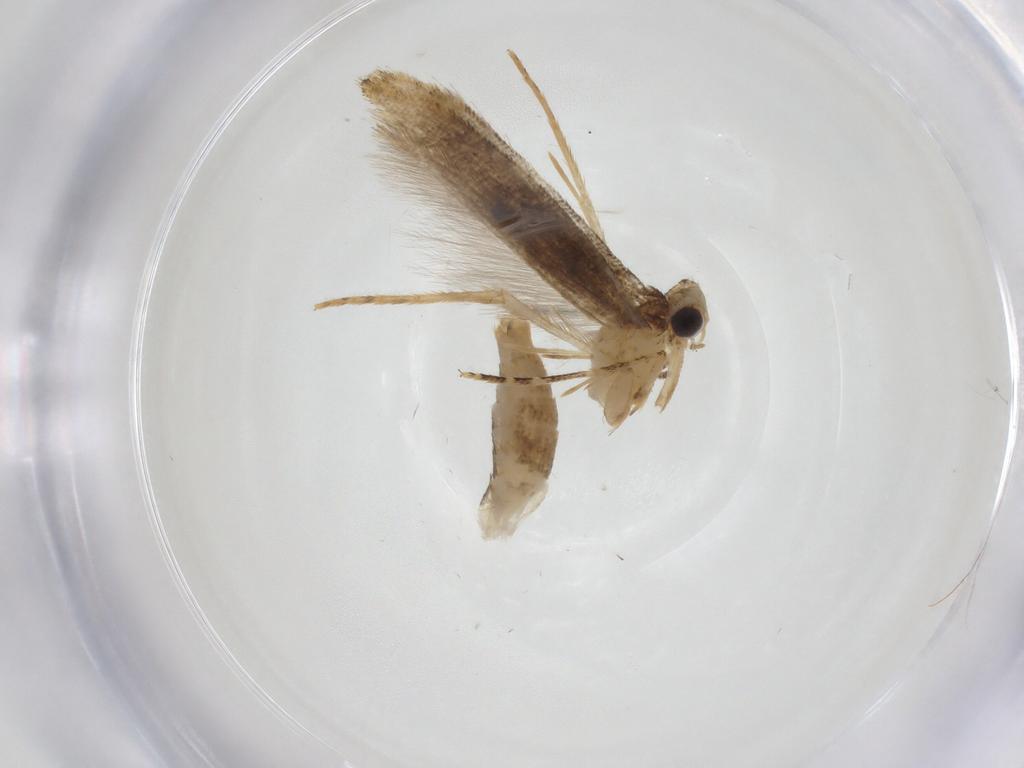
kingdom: Animalia
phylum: Arthropoda
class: Insecta
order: Lepidoptera
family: Tineidae
